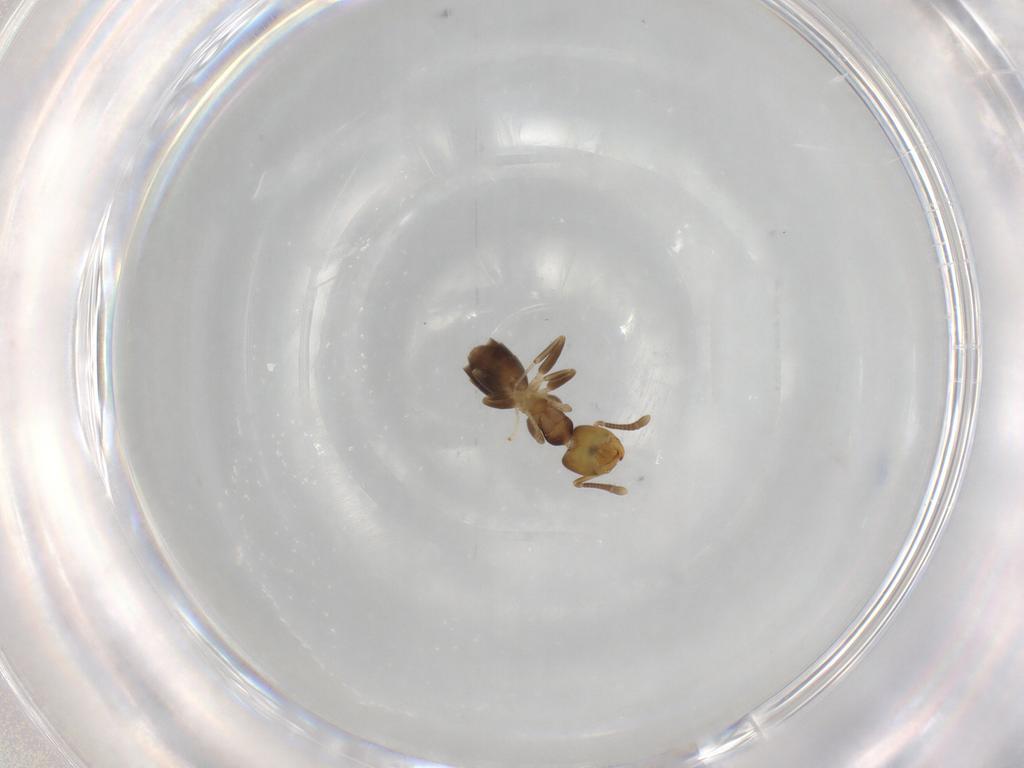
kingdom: Animalia
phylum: Arthropoda
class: Insecta
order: Hymenoptera
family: Formicidae
